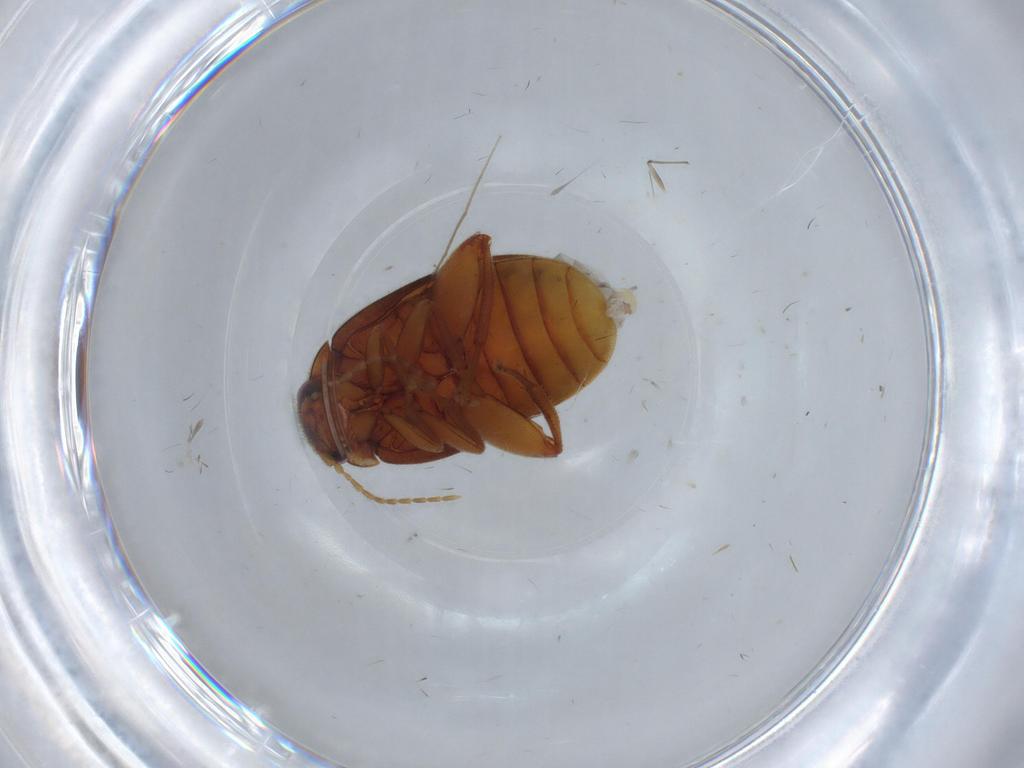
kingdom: Animalia
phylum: Arthropoda
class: Insecta
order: Coleoptera
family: Scirtidae
